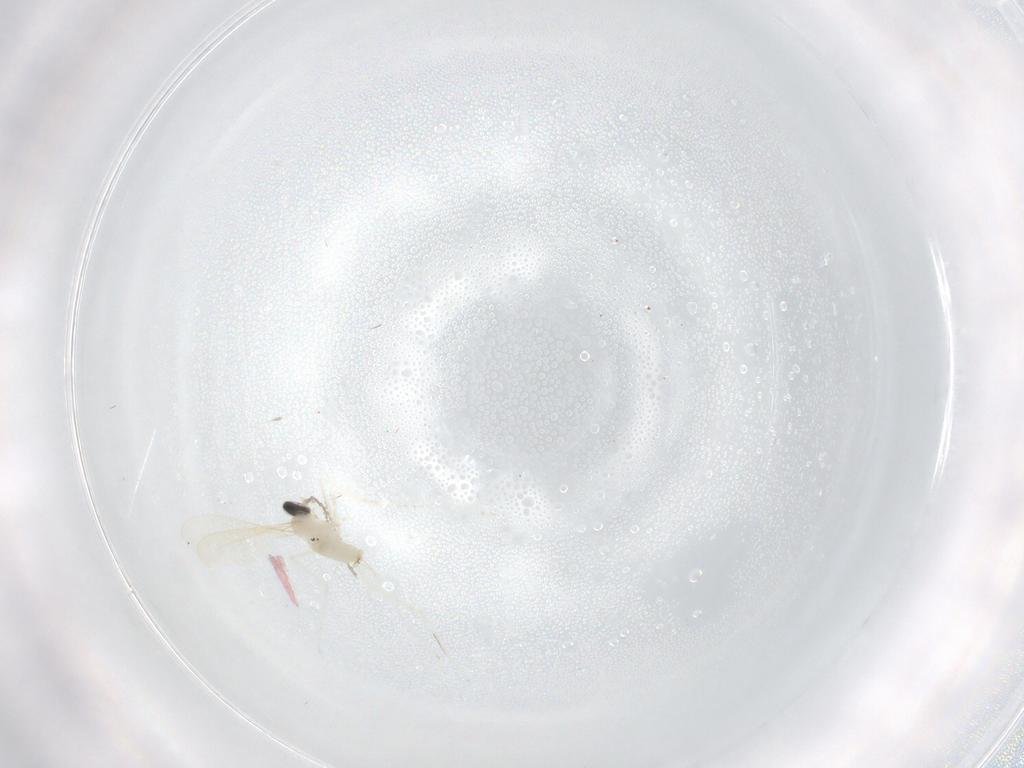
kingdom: Animalia
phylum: Arthropoda
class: Insecta
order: Diptera
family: Cecidomyiidae
